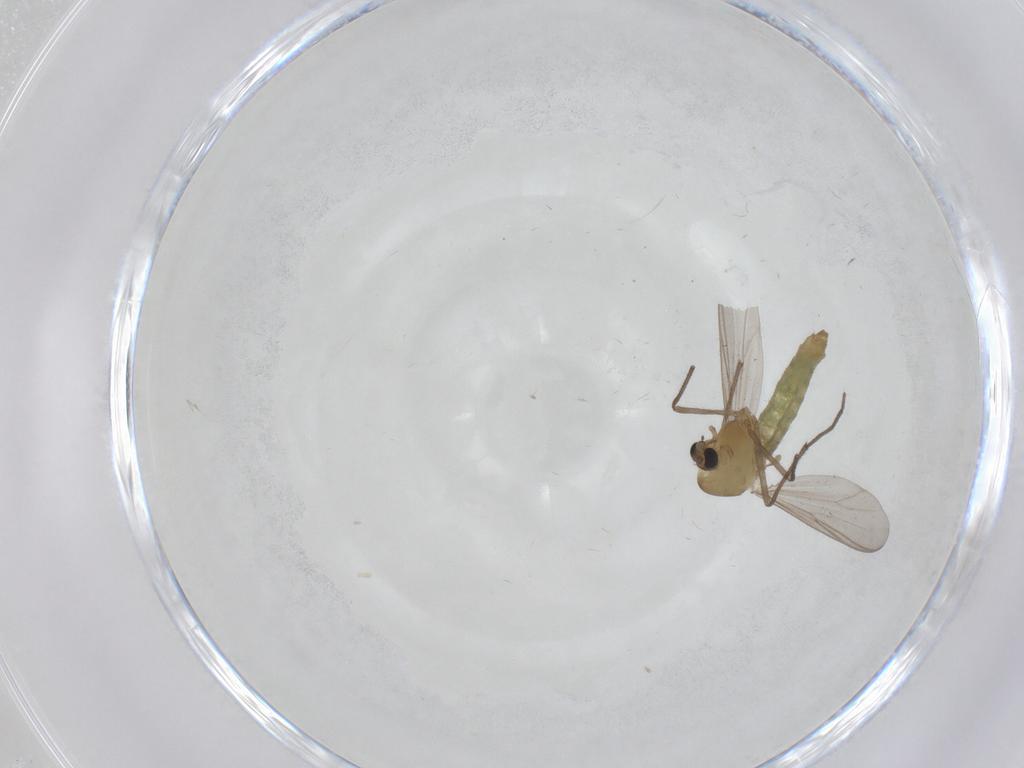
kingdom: Animalia
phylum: Arthropoda
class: Insecta
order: Diptera
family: Chironomidae
